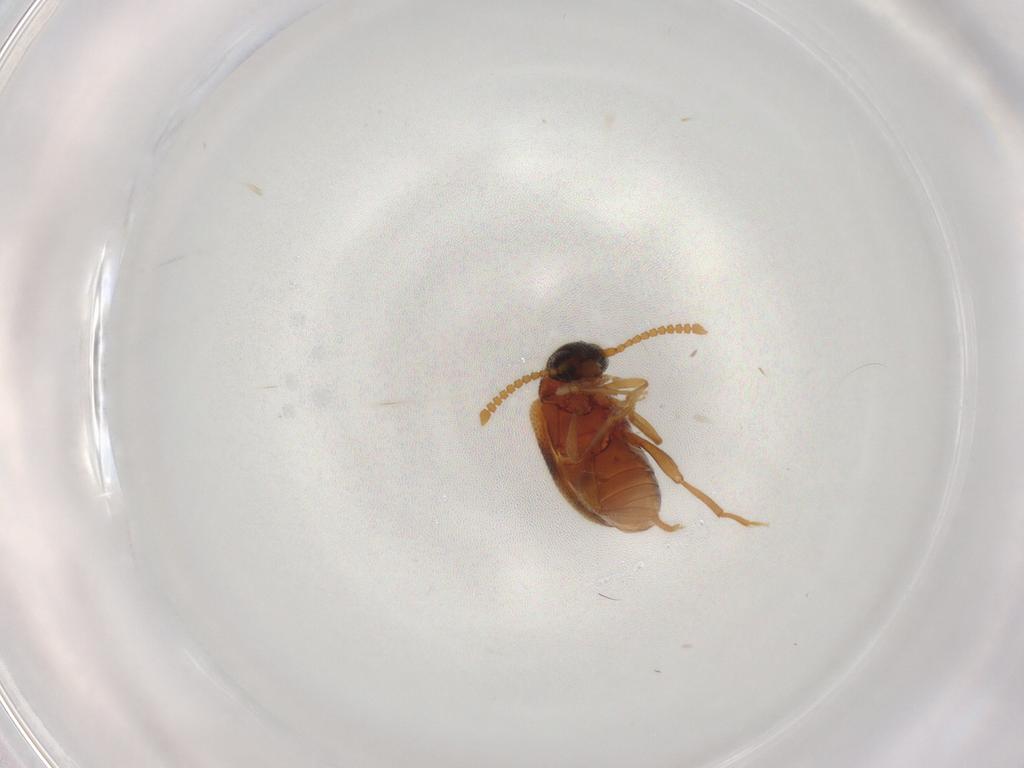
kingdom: Animalia
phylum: Arthropoda
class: Insecta
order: Coleoptera
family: Aderidae
